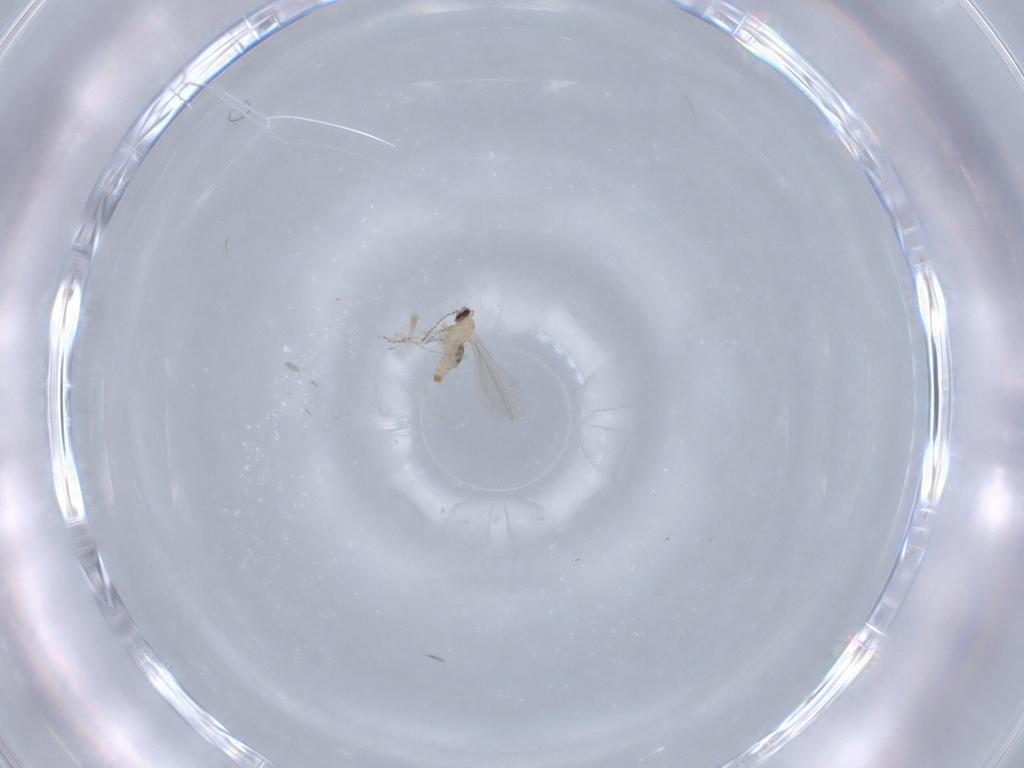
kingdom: Animalia
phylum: Arthropoda
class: Insecta
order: Diptera
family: Cecidomyiidae
